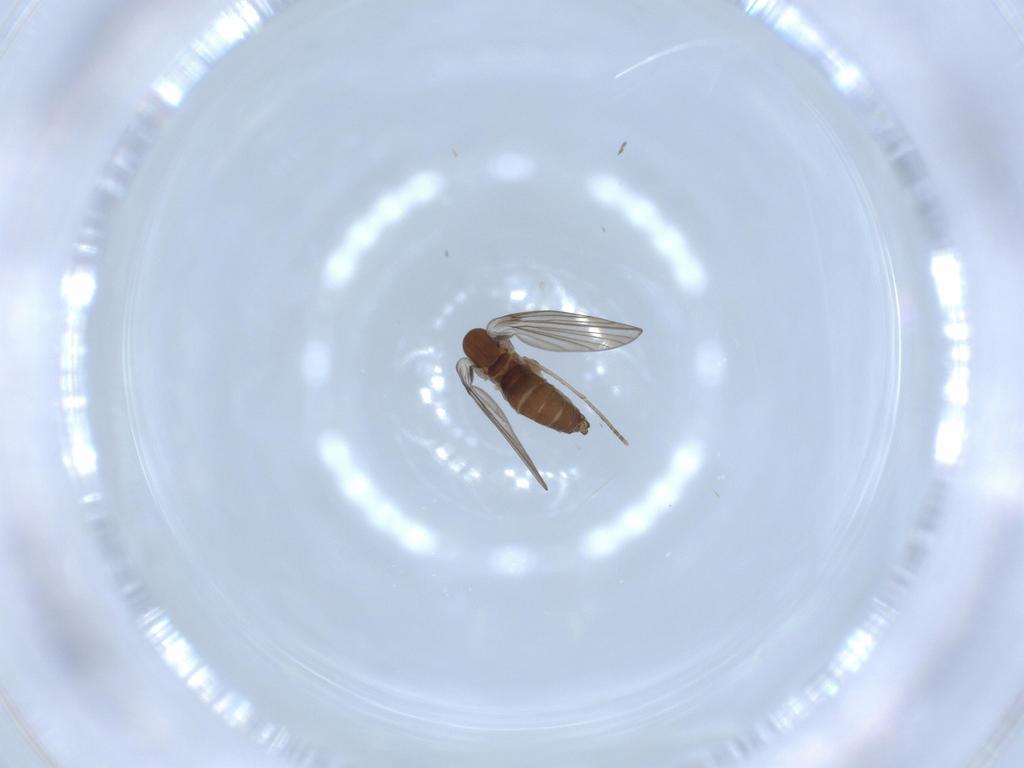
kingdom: Animalia
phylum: Arthropoda
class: Insecta
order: Diptera
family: Psychodidae
